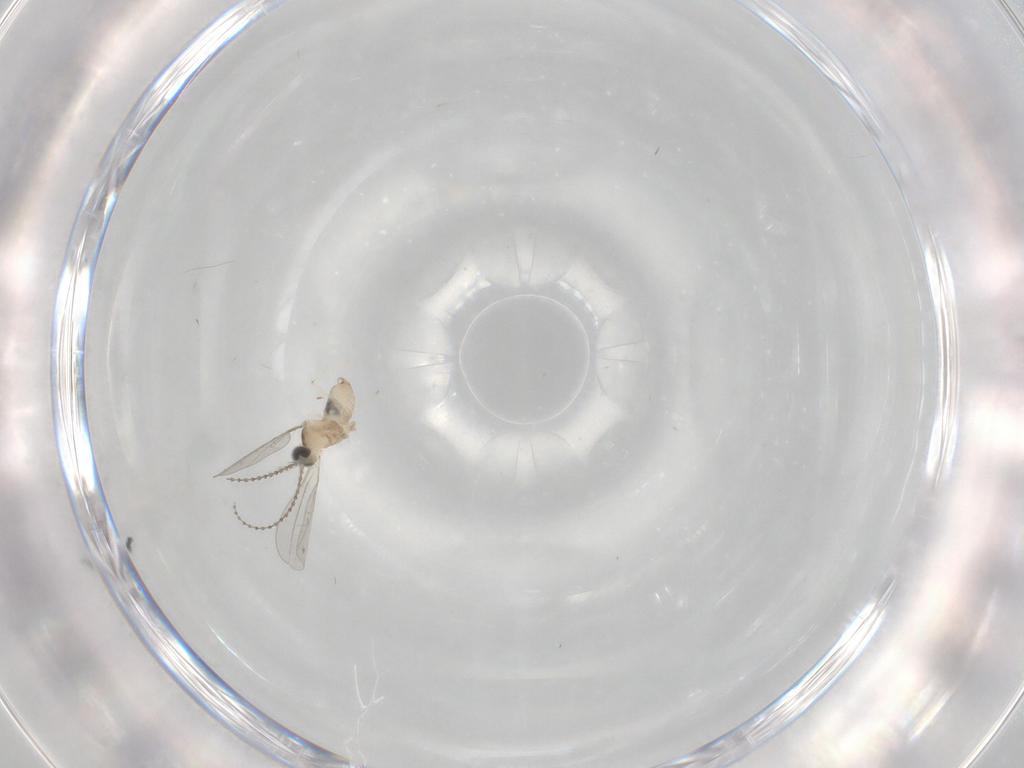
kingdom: Animalia
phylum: Arthropoda
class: Insecta
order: Diptera
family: Cecidomyiidae
